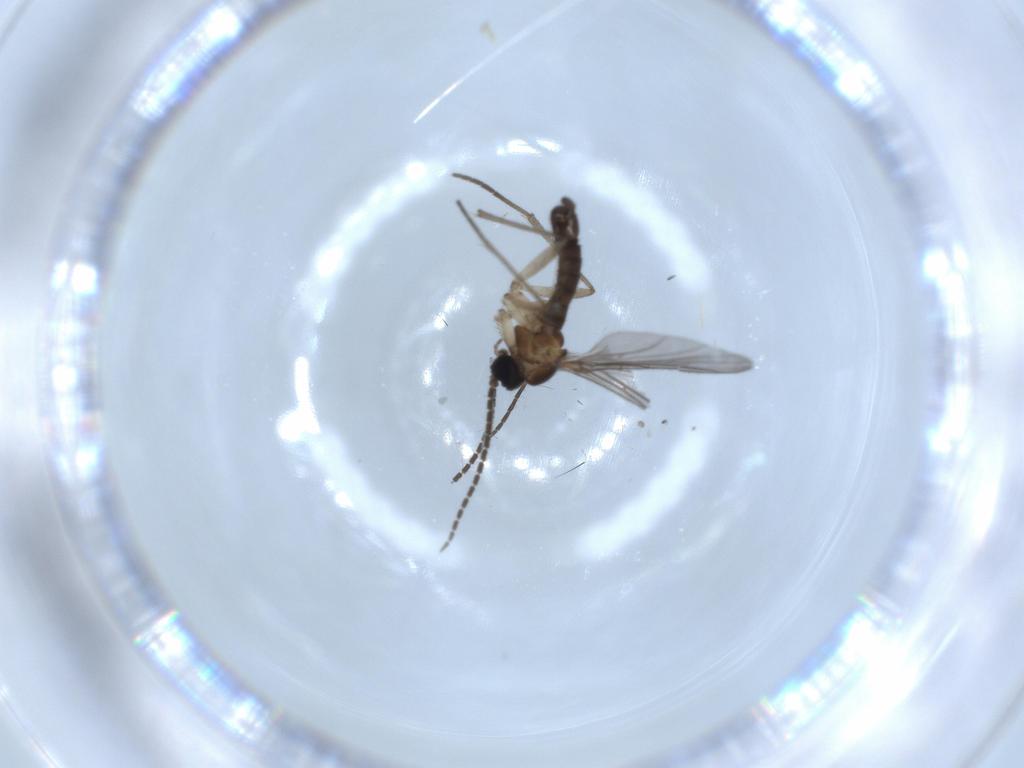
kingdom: Animalia
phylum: Arthropoda
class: Insecta
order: Diptera
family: Sciaridae
